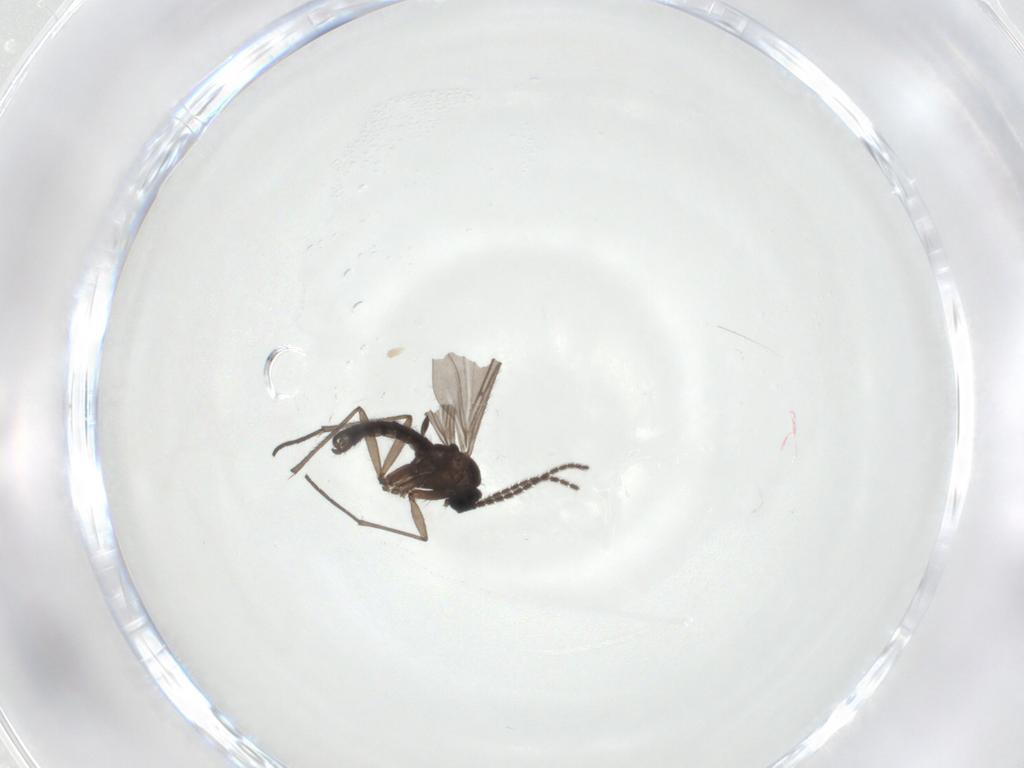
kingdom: Animalia
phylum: Arthropoda
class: Insecta
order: Diptera
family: Sciaridae
